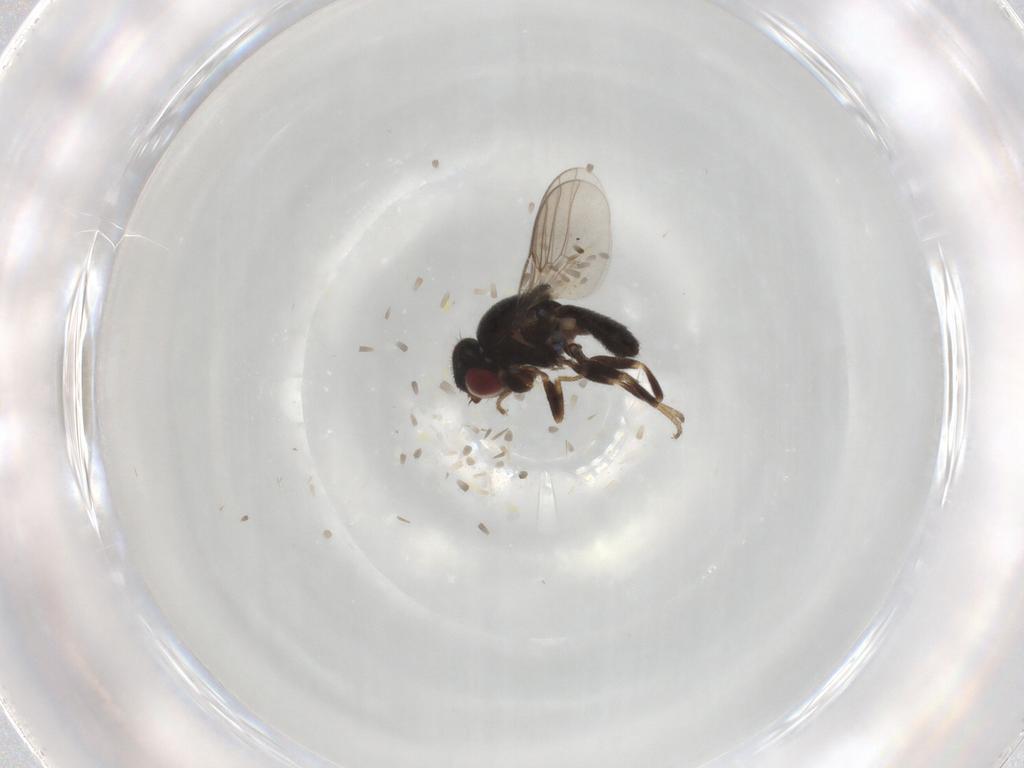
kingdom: Animalia
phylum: Arthropoda
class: Insecta
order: Diptera
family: Chloropidae
